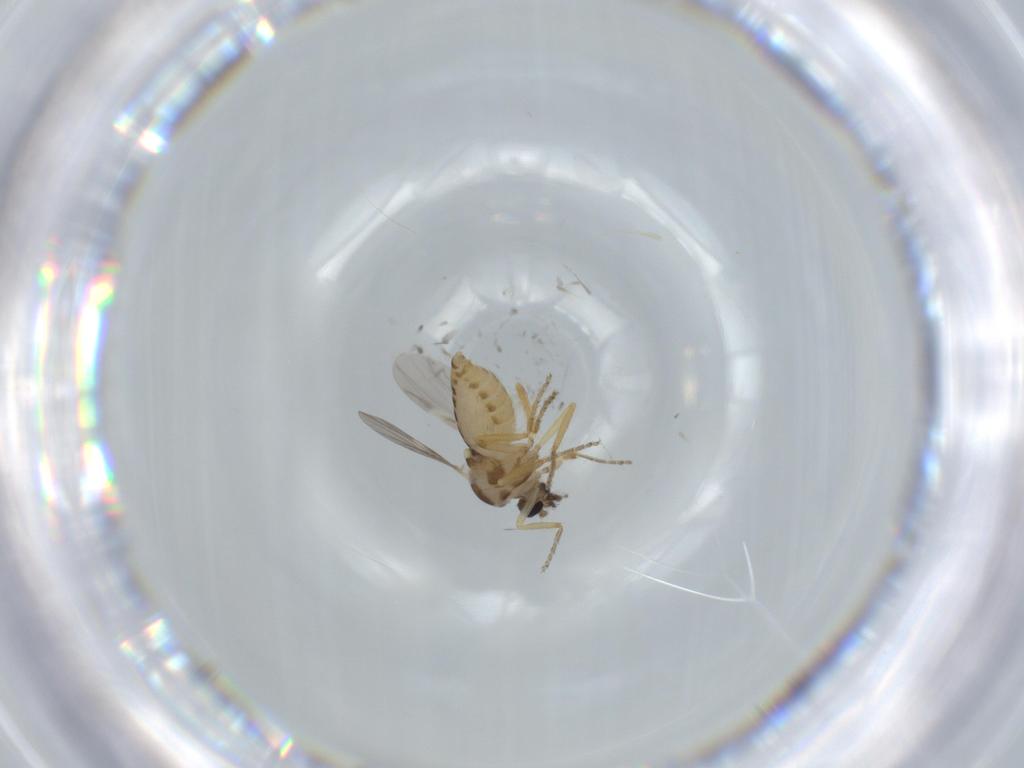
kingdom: Animalia
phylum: Arthropoda
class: Insecta
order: Diptera
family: Ceratopogonidae
